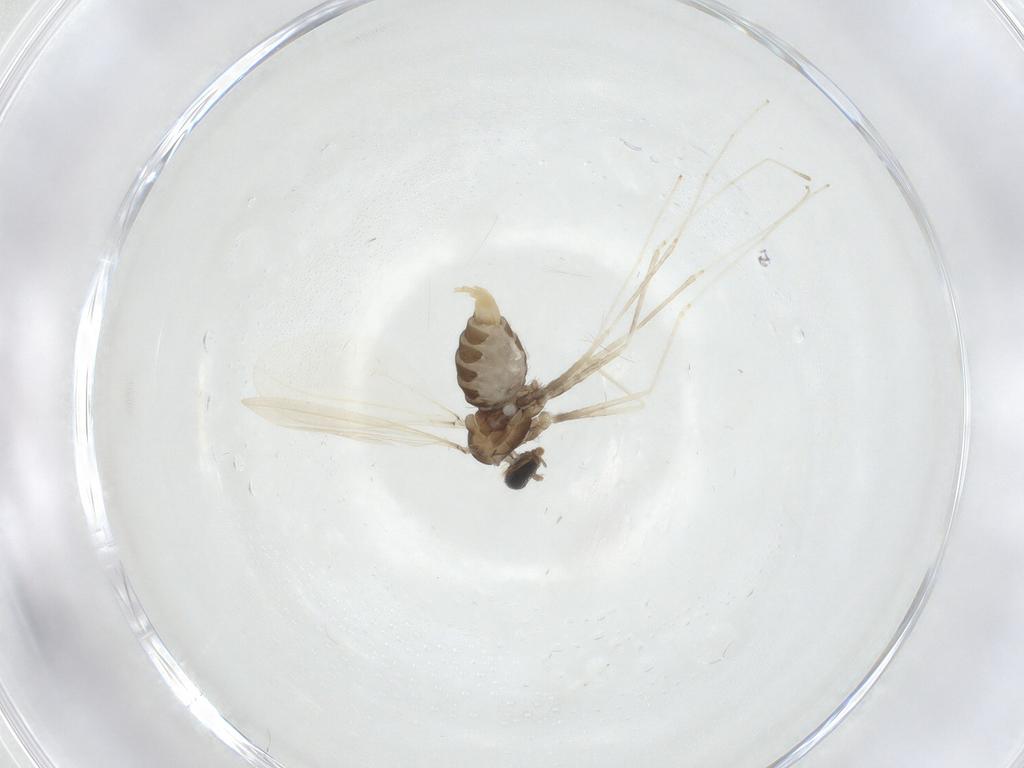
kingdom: Animalia
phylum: Arthropoda
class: Insecta
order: Diptera
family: Cecidomyiidae
